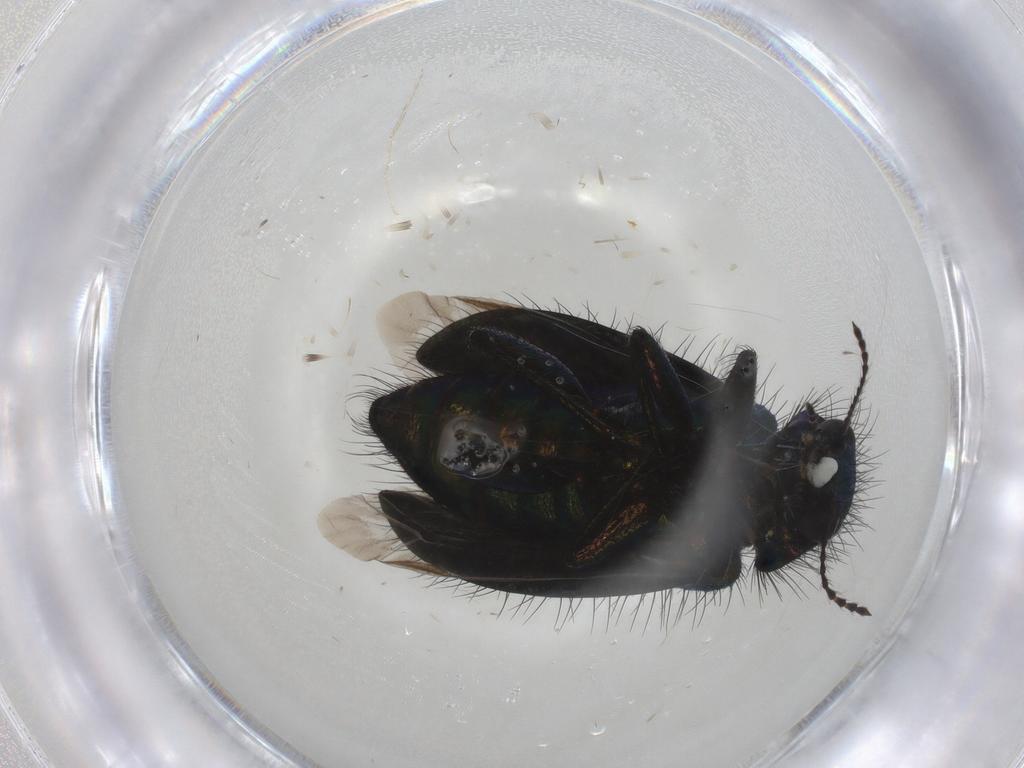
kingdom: Animalia
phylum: Arthropoda
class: Insecta
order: Coleoptera
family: Melyridae
